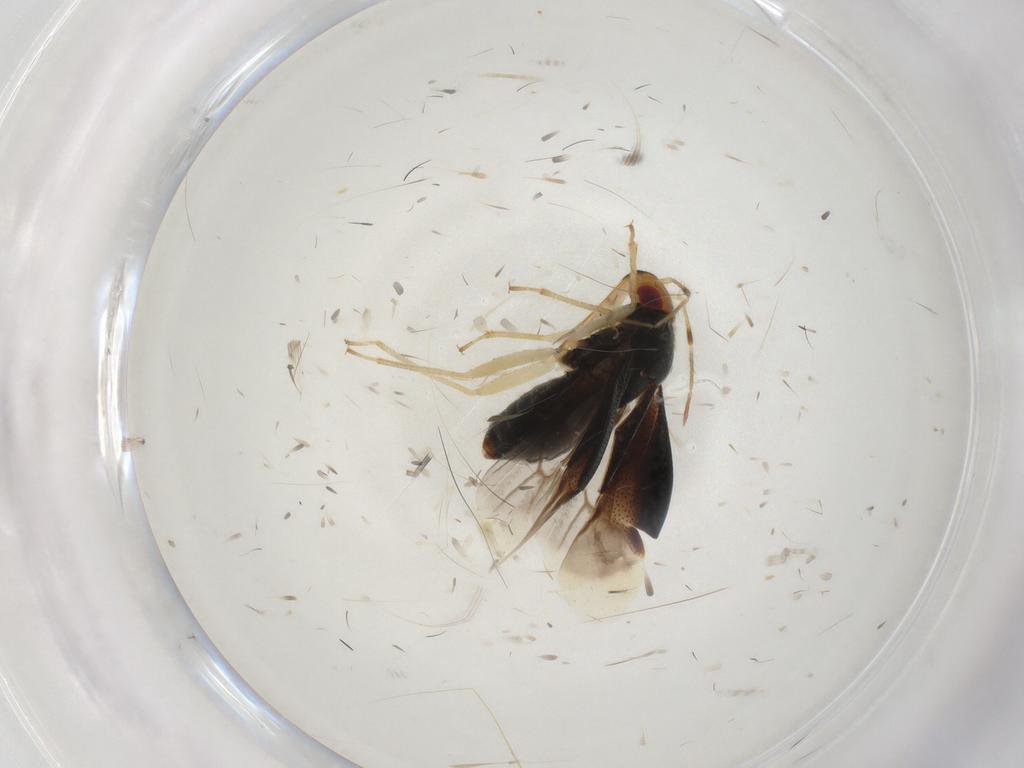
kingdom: Animalia
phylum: Arthropoda
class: Insecta
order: Hemiptera
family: Miridae
